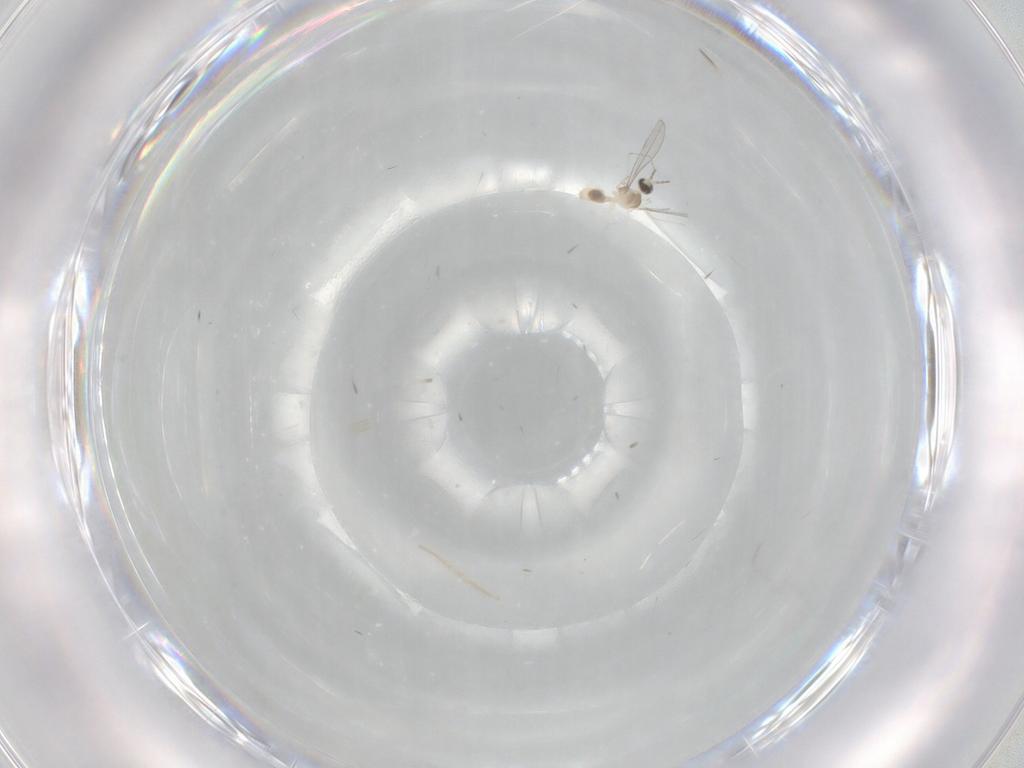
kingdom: Animalia
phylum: Arthropoda
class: Insecta
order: Diptera
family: Cecidomyiidae
